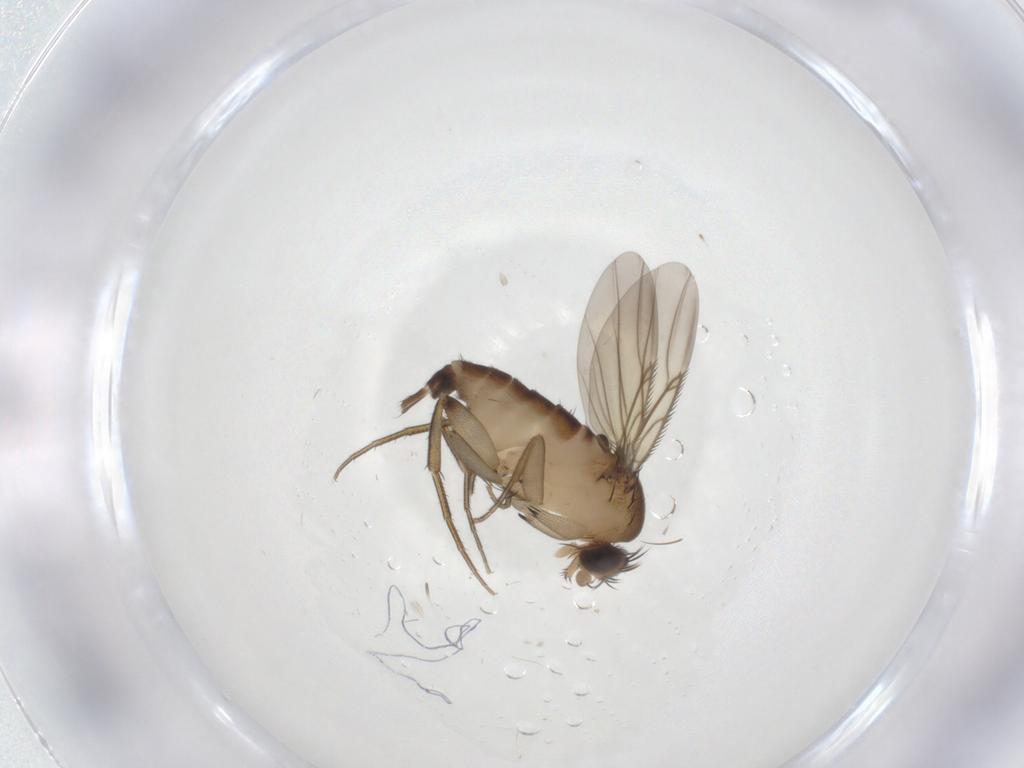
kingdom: Animalia
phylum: Arthropoda
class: Insecta
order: Diptera
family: Phoridae
